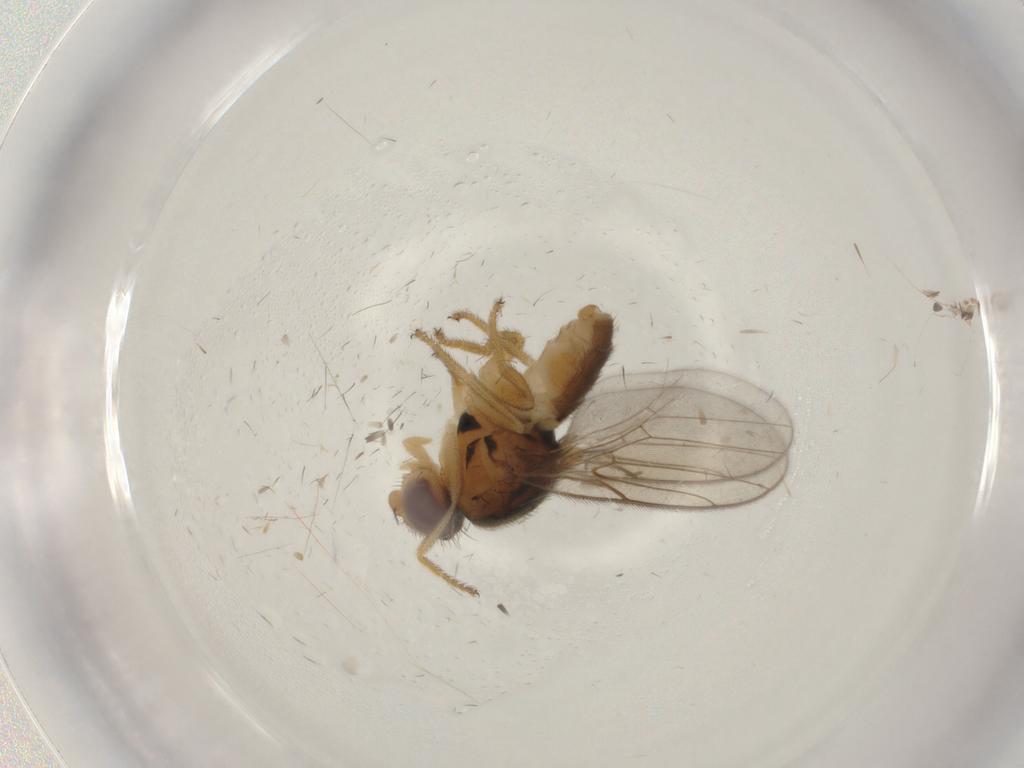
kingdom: Animalia
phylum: Arthropoda
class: Insecta
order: Diptera
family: Chloropidae
